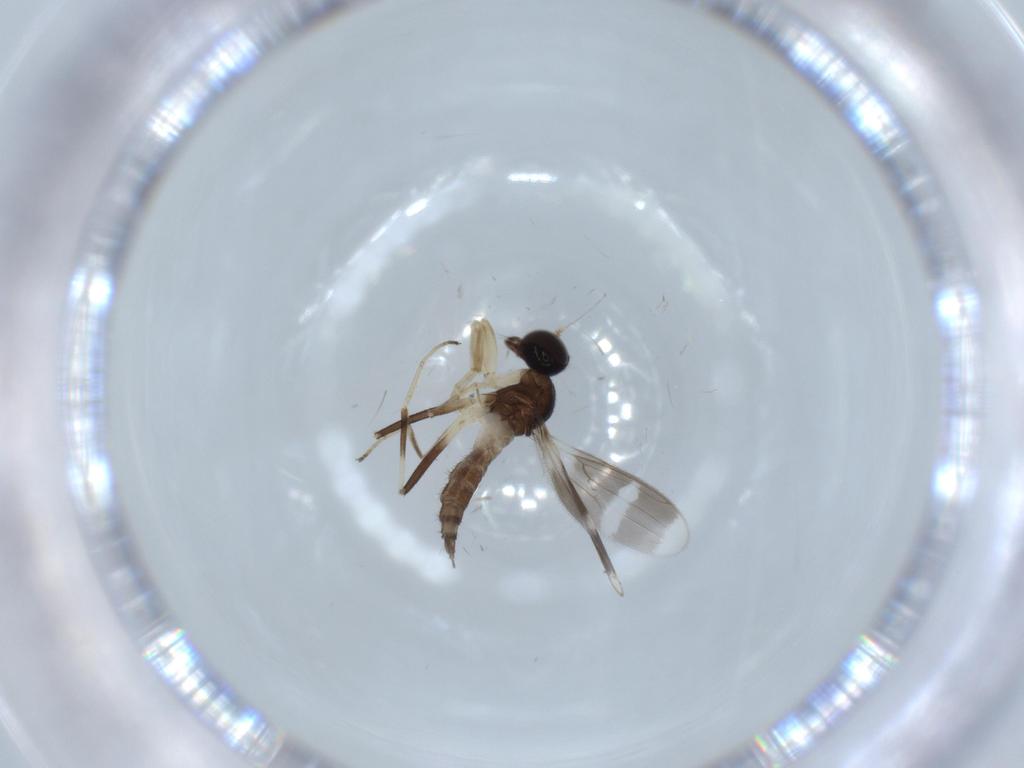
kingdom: Animalia
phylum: Arthropoda
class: Insecta
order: Diptera
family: Hybotidae
